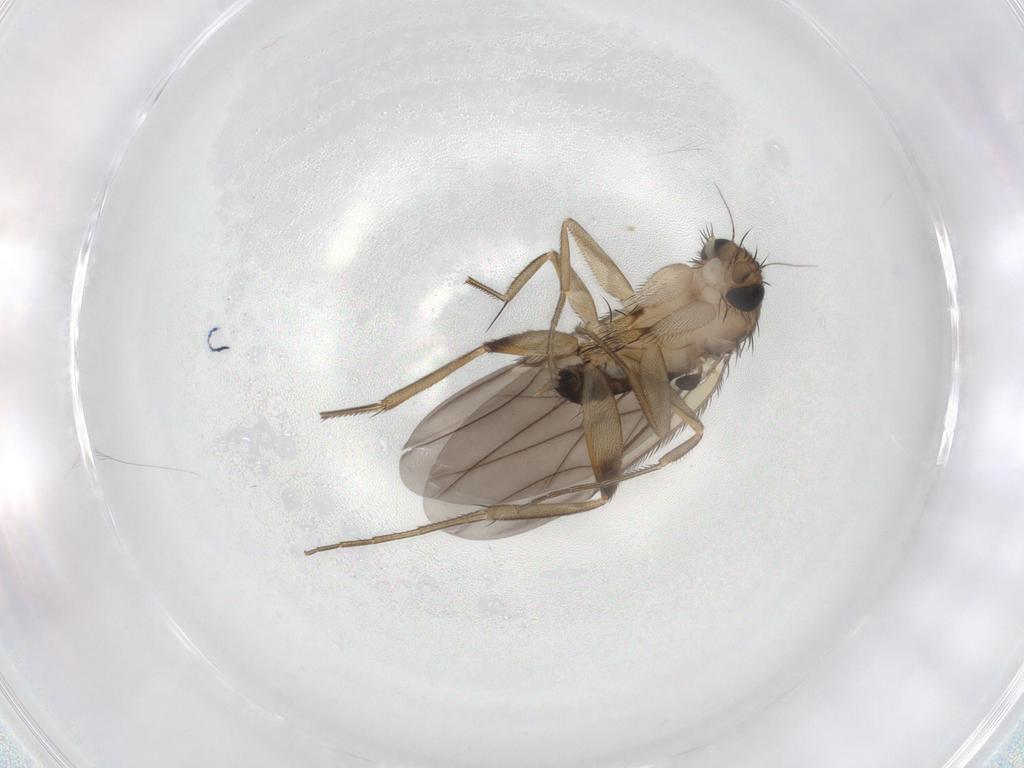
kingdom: Animalia
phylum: Arthropoda
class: Insecta
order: Diptera
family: Phoridae
